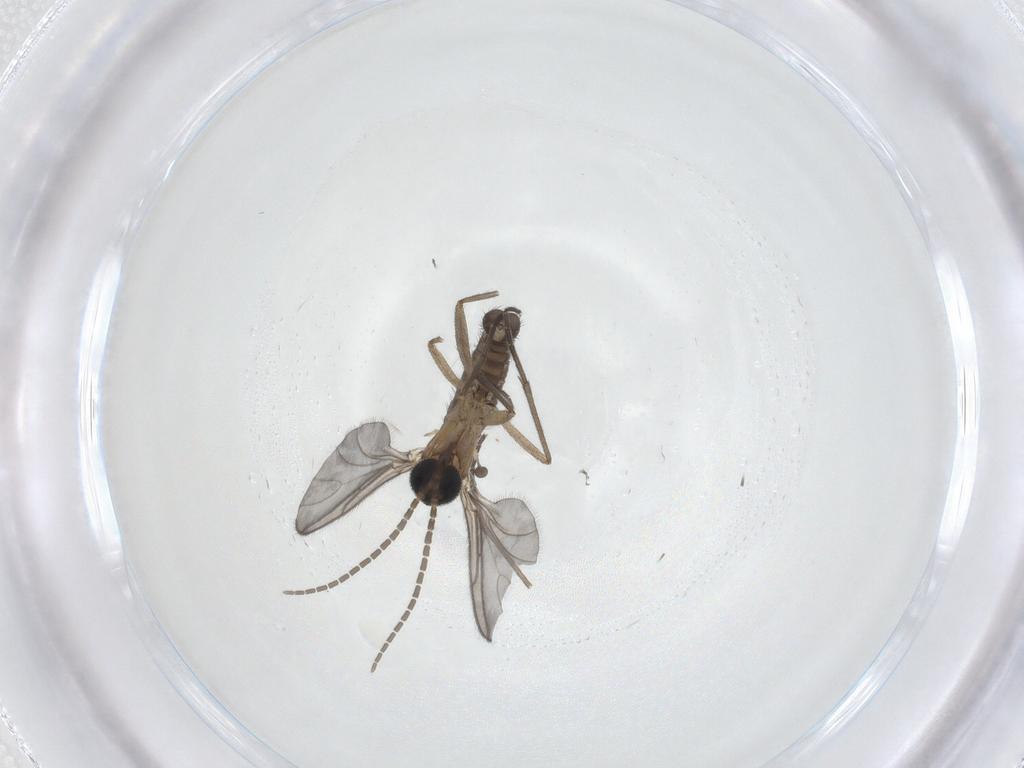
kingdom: Animalia
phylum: Arthropoda
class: Insecta
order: Diptera
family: Sciaridae
